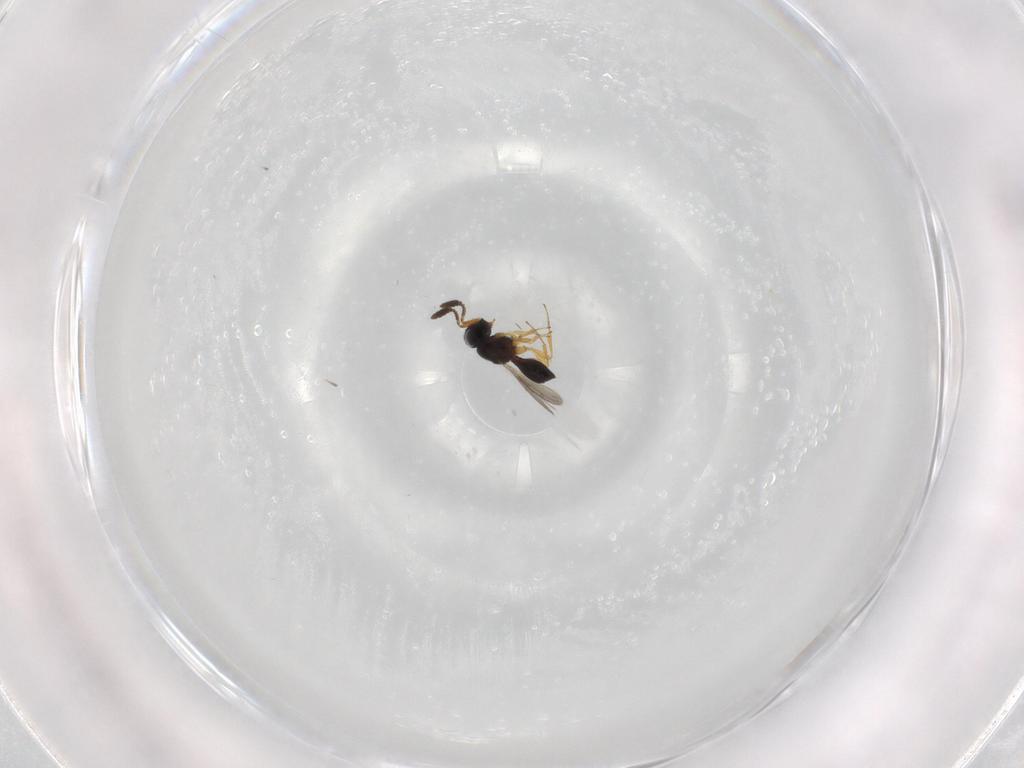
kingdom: Animalia
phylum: Arthropoda
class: Insecta
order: Hymenoptera
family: Scelionidae
